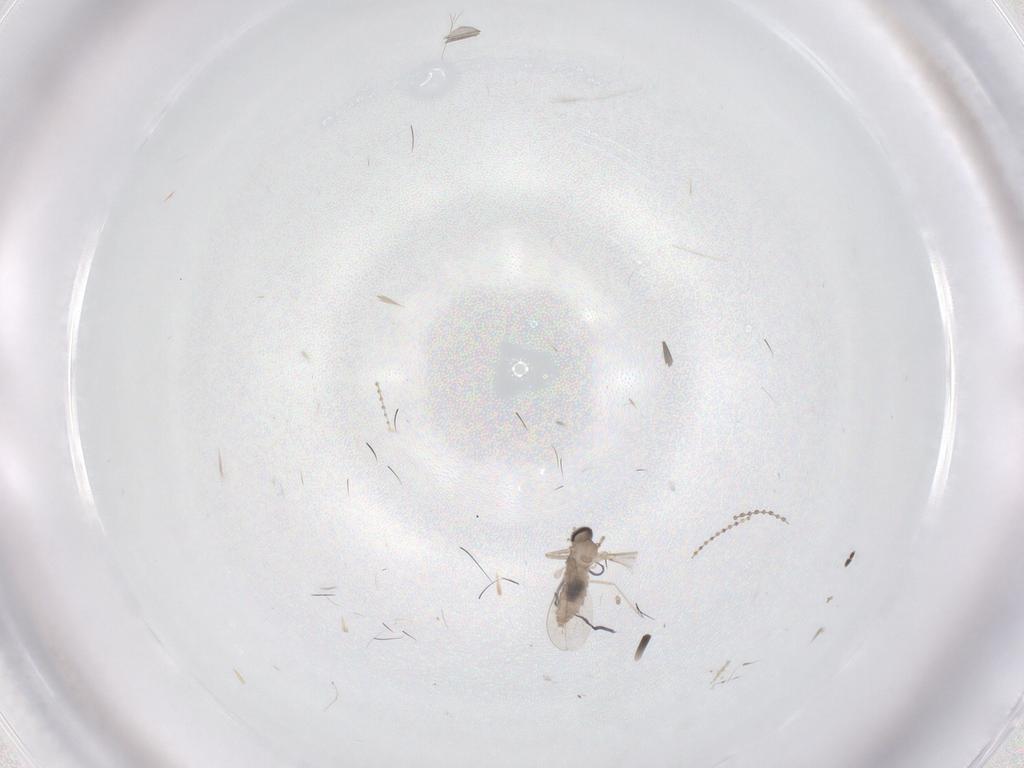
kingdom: Animalia
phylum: Arthropoda
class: Insecta
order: Diptera
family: Cecidomyiidae
